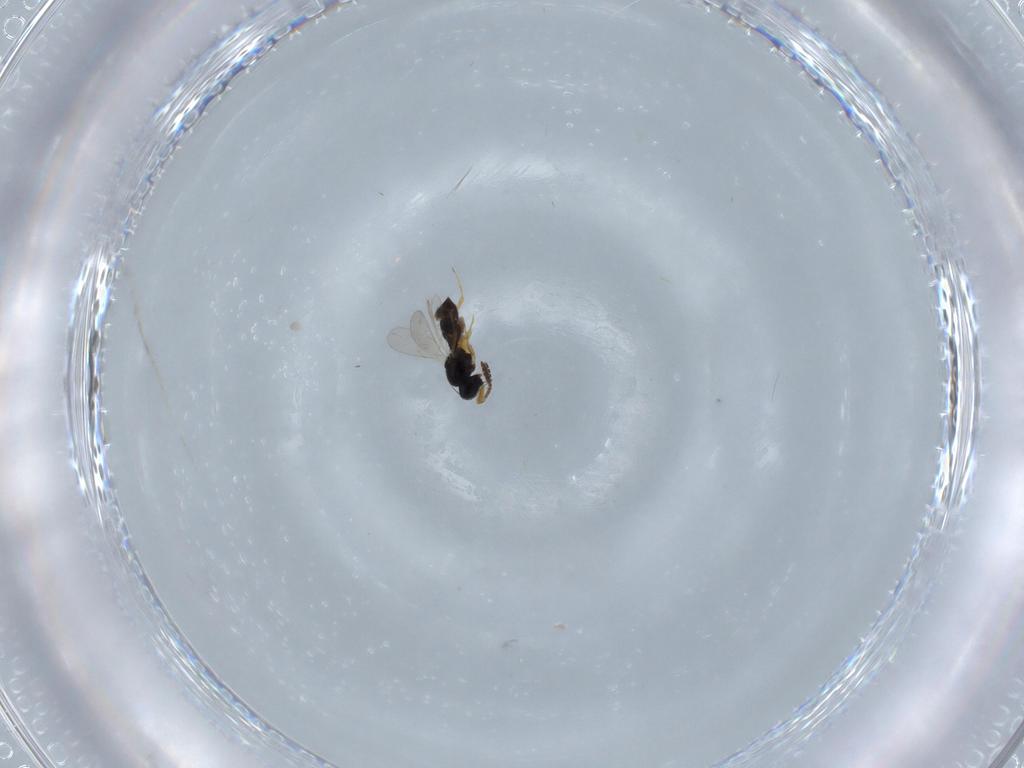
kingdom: Animalia
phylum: Arthropoda
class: Insecta
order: Hymenoptera
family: Scelionidae
